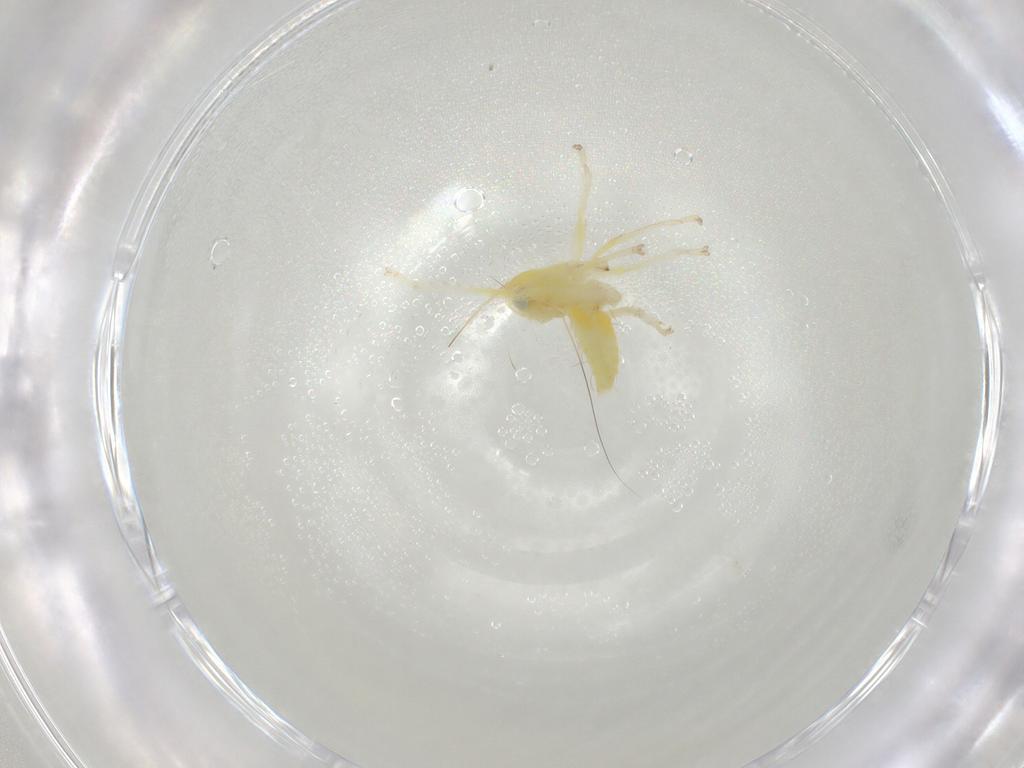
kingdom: Animalia
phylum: Arthropoda
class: Insecta
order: Hemiptera
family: Cicadellidae
